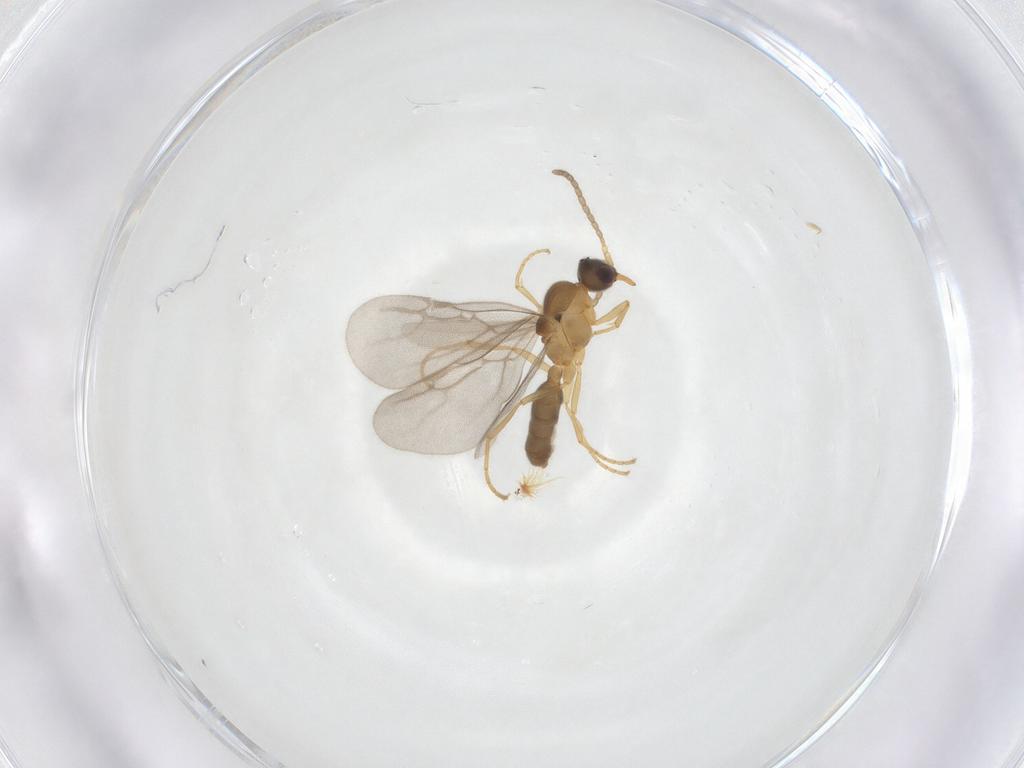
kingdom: Animalia
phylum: Arthropoda
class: Insecta
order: Hymenoptera
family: Formicidae
